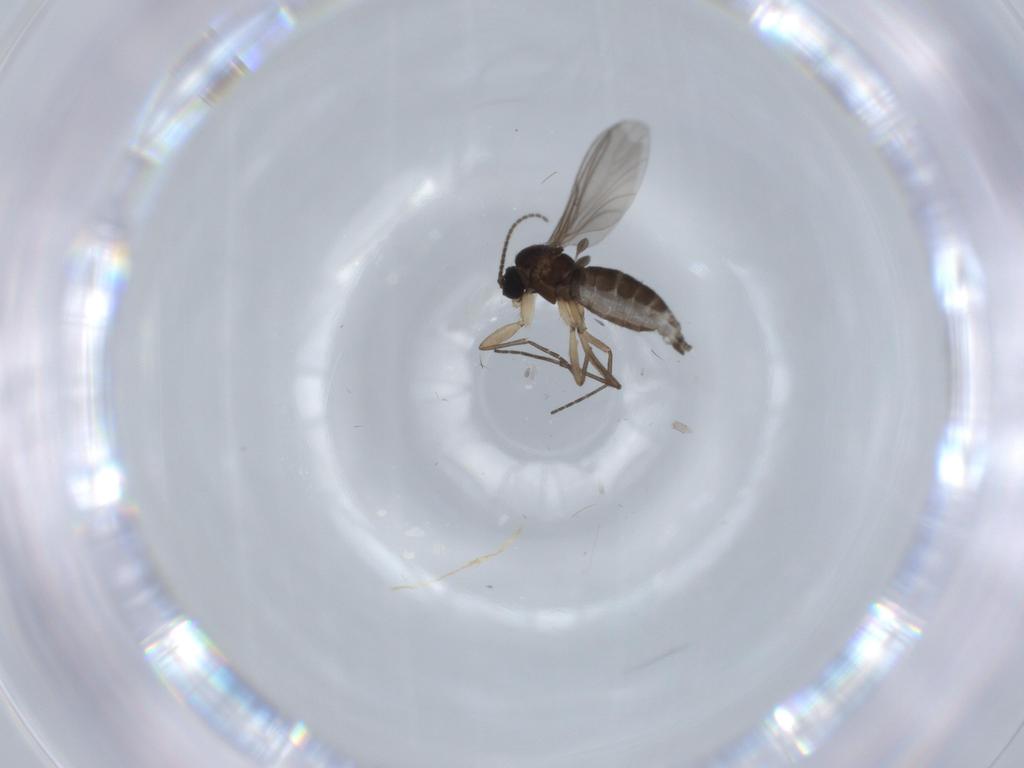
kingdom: Animalia
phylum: Arthropoda
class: Insecta
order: Diptera
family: Sciaridae
